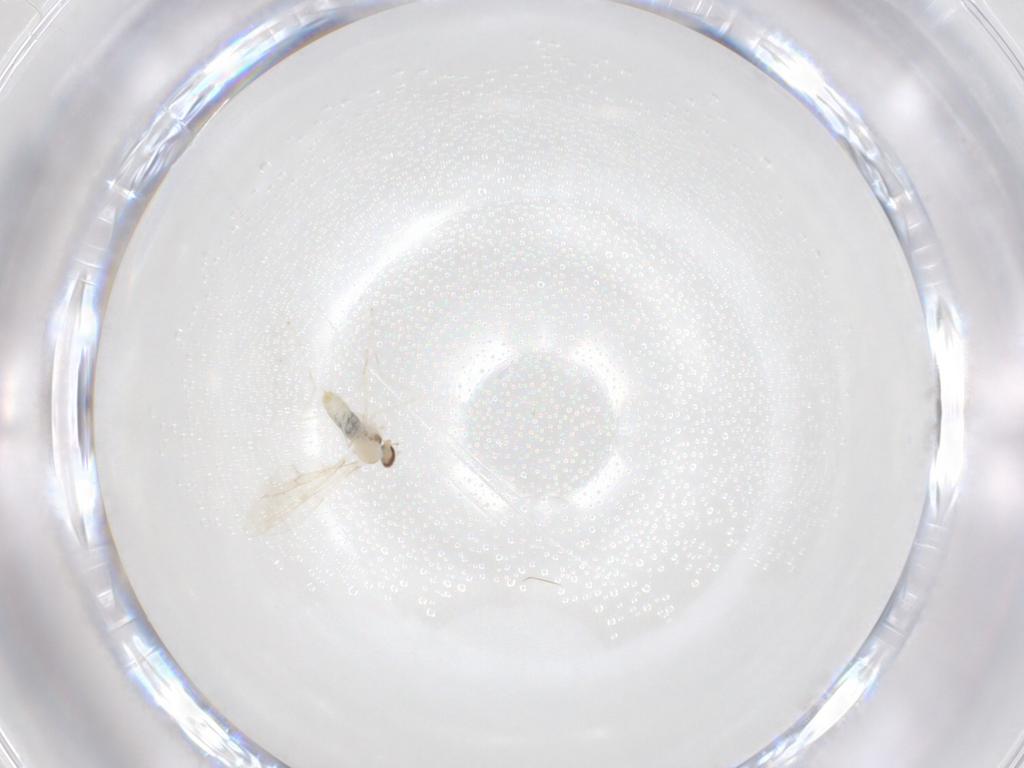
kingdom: Animalia
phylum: Arthropoda
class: Insecta
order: Diptera
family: Cecidomyiidae
